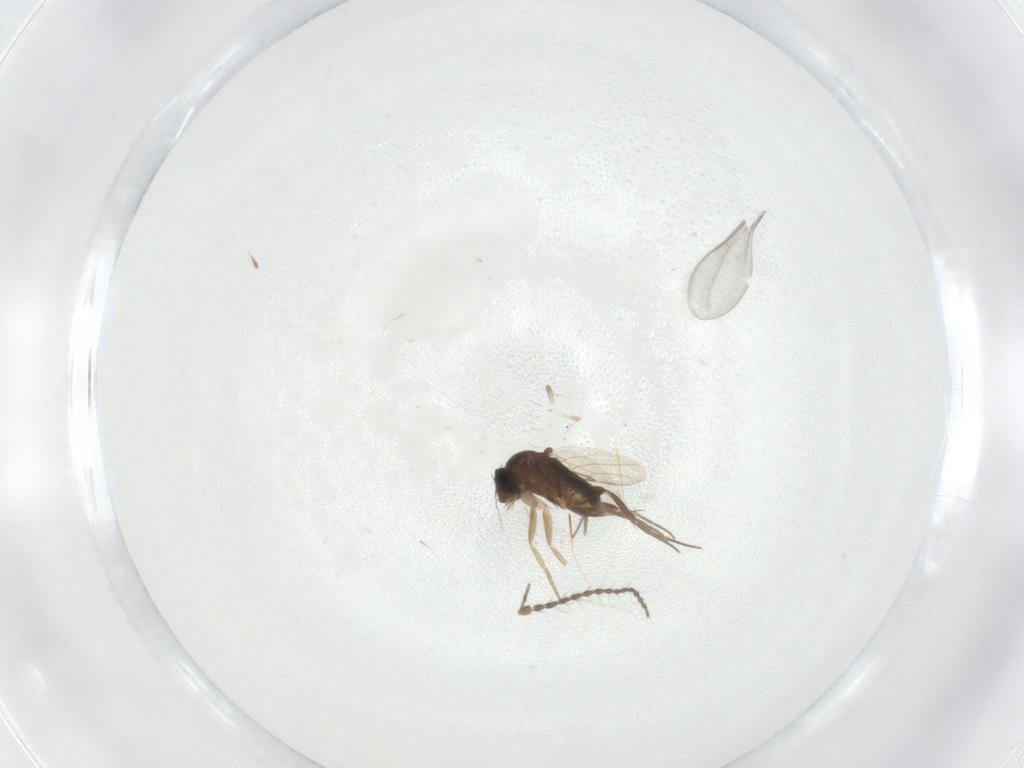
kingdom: Animalia
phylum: Arthropoda
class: Insecta
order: Diptera
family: Limoniidae
